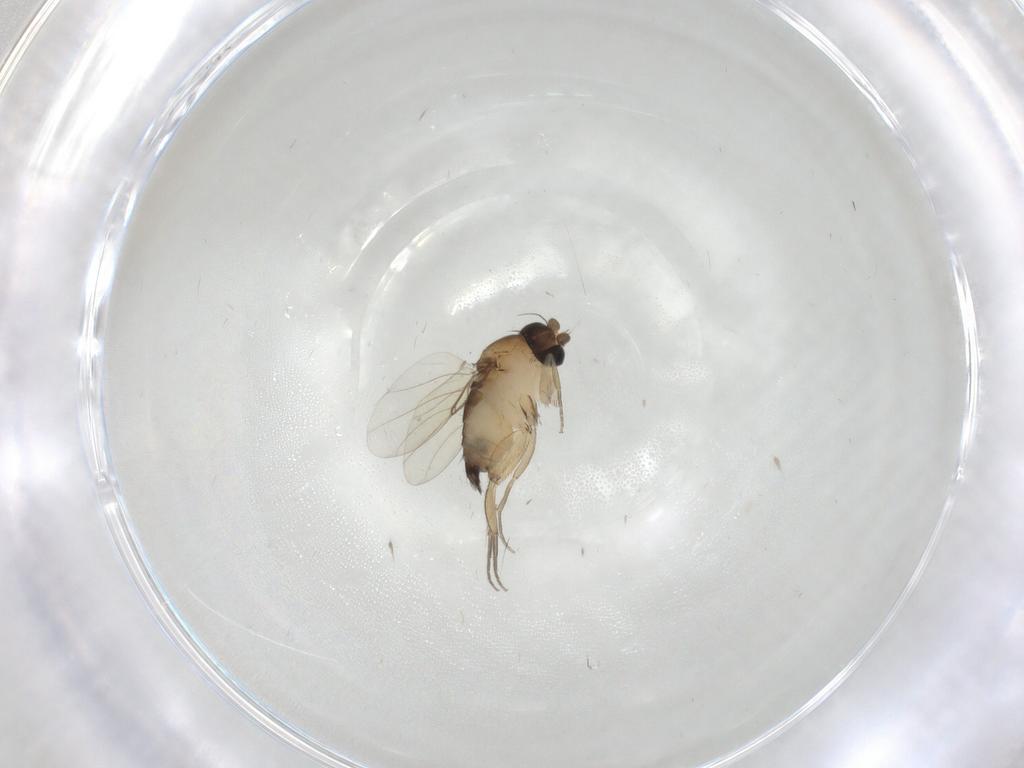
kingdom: Animalia
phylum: Arthropoda
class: Insecta
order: Diptera
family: Phoridae
